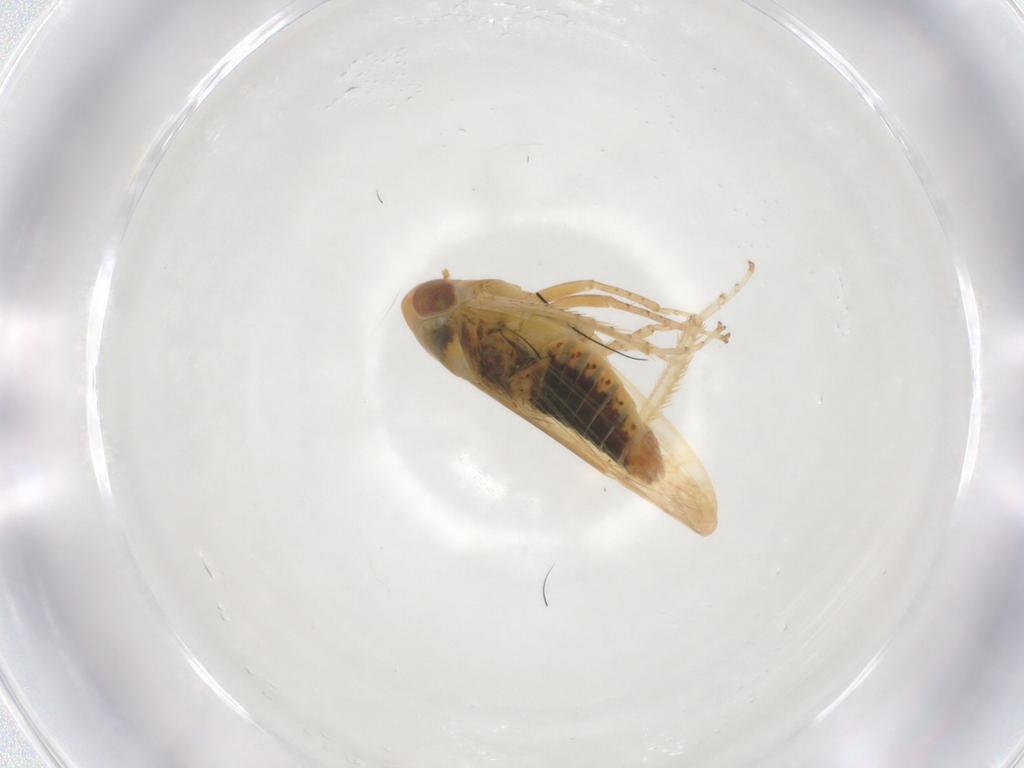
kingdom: Animalia
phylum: Arthropoda
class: Insecta
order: Hemiptera
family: Cicadellidae
